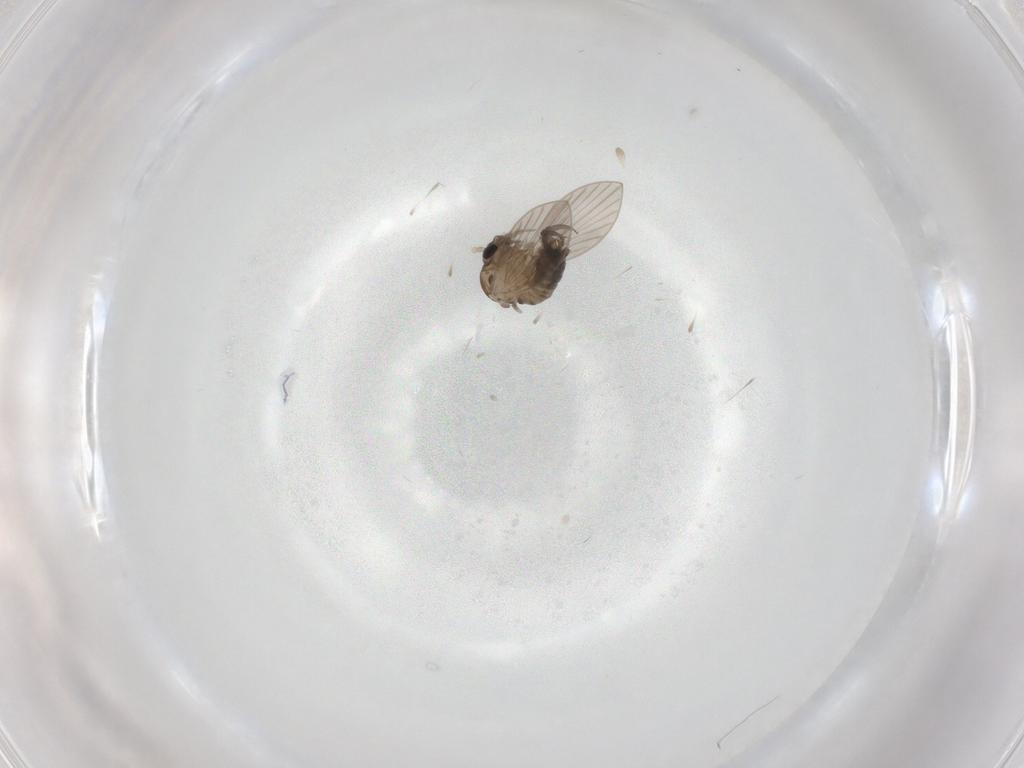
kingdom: Animalia
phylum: Arthropoda
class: Insecta
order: Diptera
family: Psychodidae
